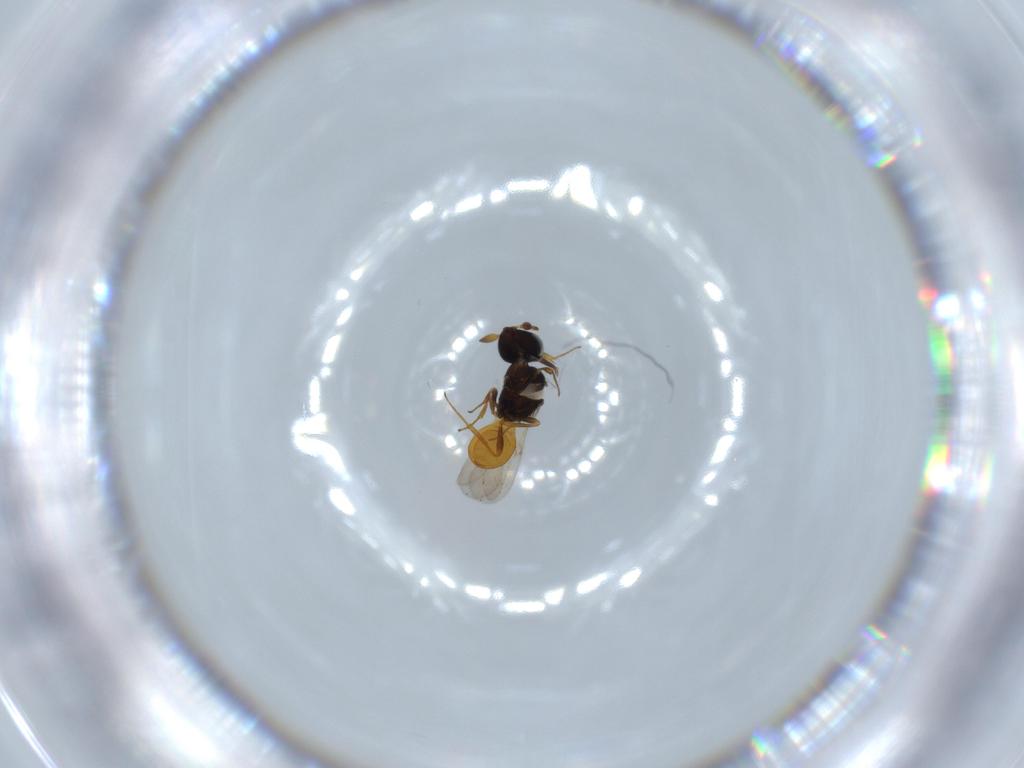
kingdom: Animalia
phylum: Arthropoda
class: Insecta
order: Hymenoptera
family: Scelionidae
